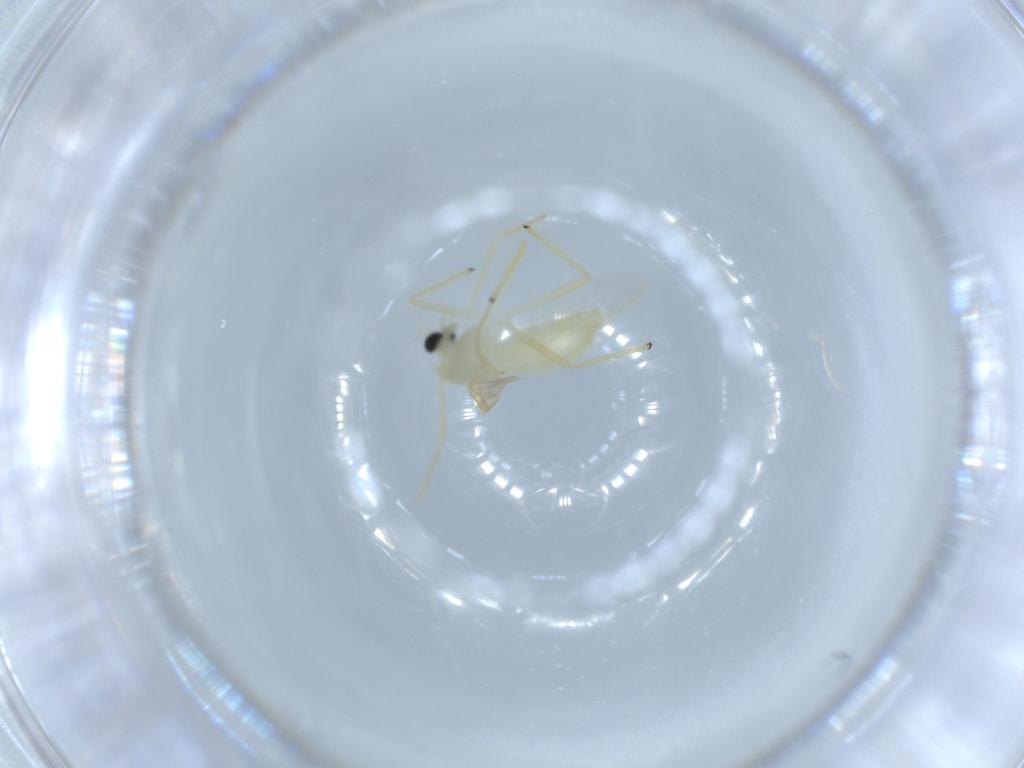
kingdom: Animalia
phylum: Arthropoda
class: Insecta
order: Diptera
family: Chironomidae
